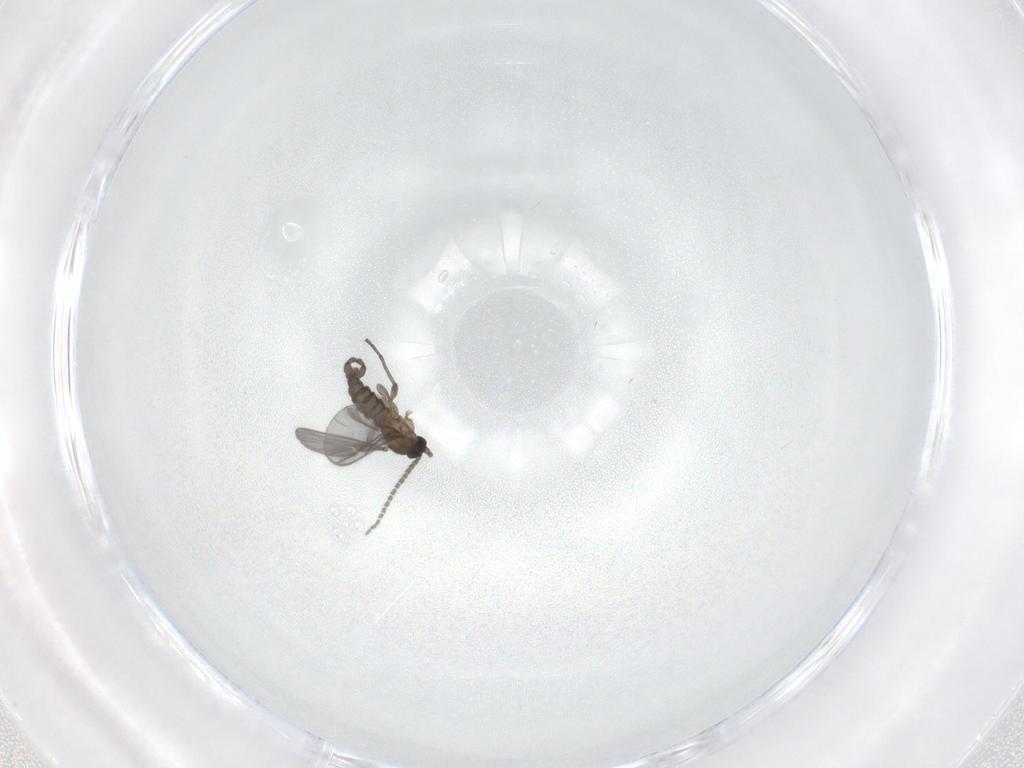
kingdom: Animalia
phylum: Arthropoda
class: Insecta
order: Diptera
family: Sciaridae
